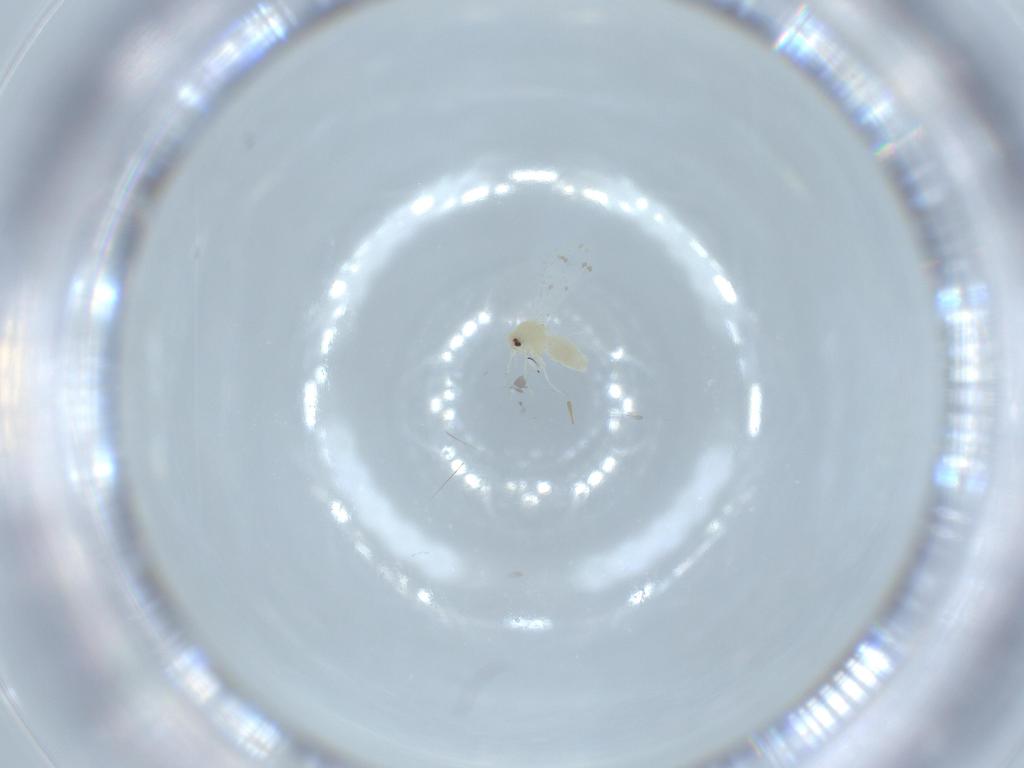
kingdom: Animalia
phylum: Arthropoda
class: Insecta
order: Hemiptera
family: Aleyrodidae
